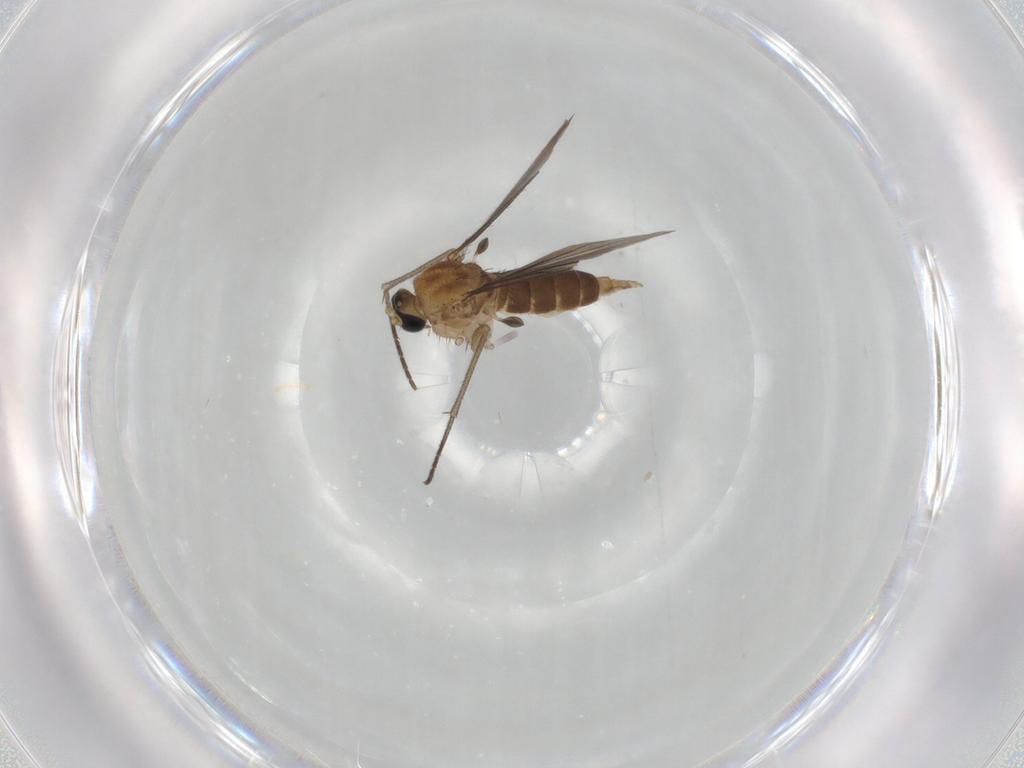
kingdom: Animalia
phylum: Arthropoda
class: Insecta
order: Diptera
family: Sciaridae
